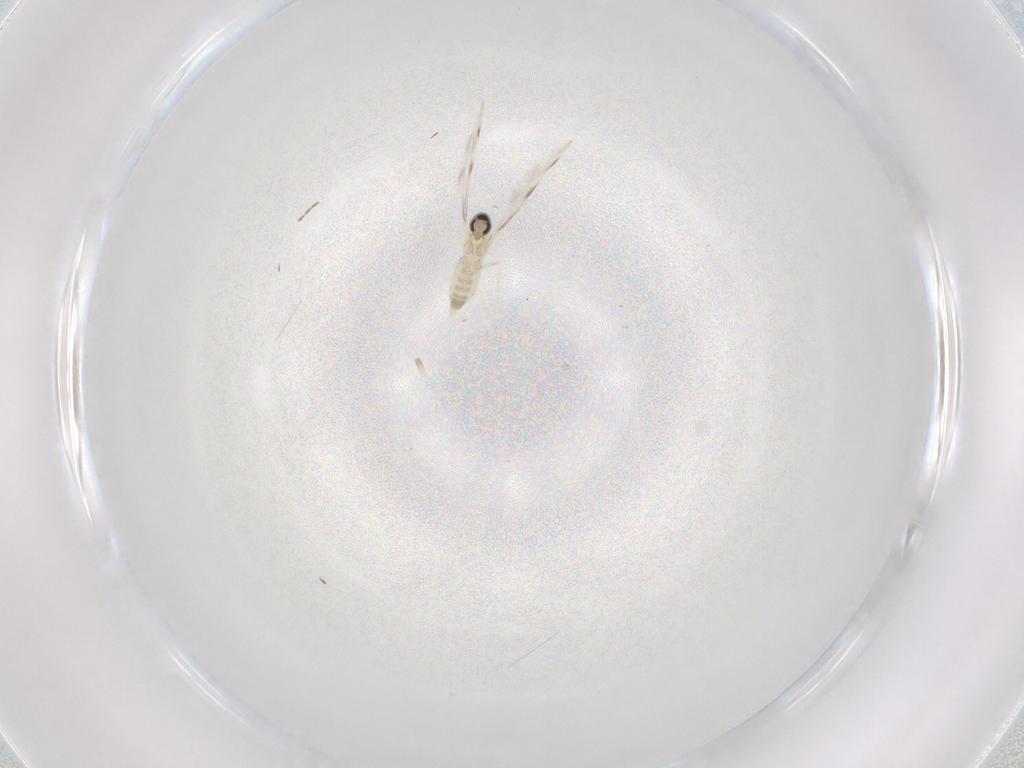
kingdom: Animalia
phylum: Arthropoda
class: Insecta
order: Diptera
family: Cecidomyiidae
